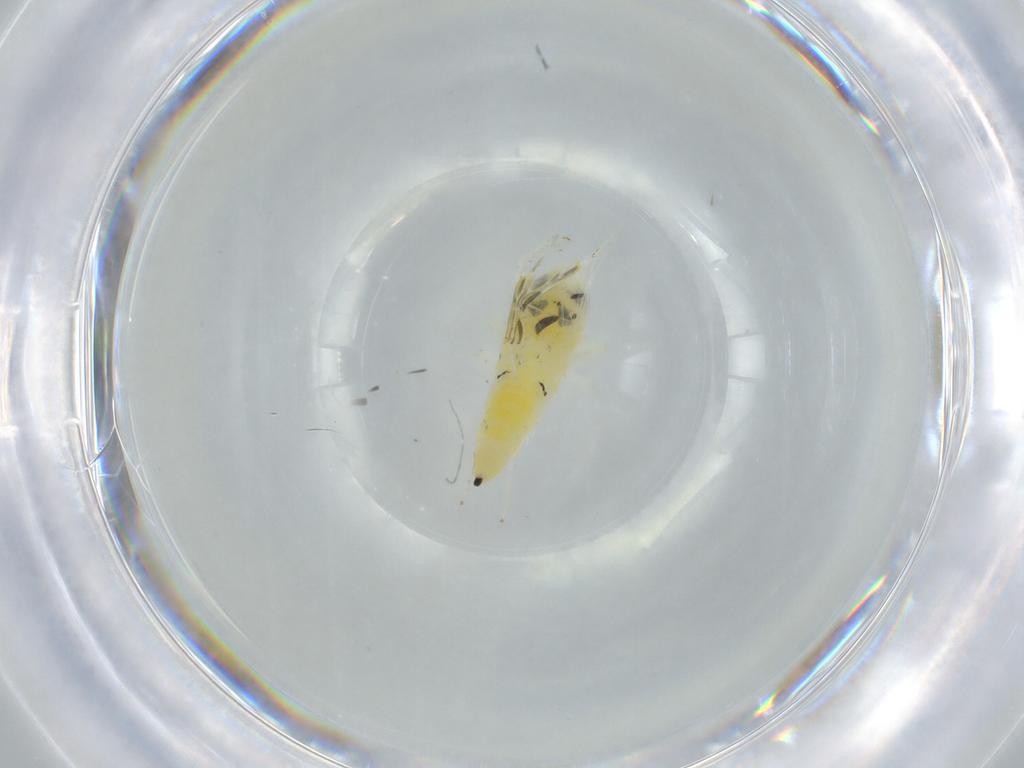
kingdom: Animalia
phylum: Arthropoda
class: Insecta
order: Hemiptera
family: Cicadellidae
